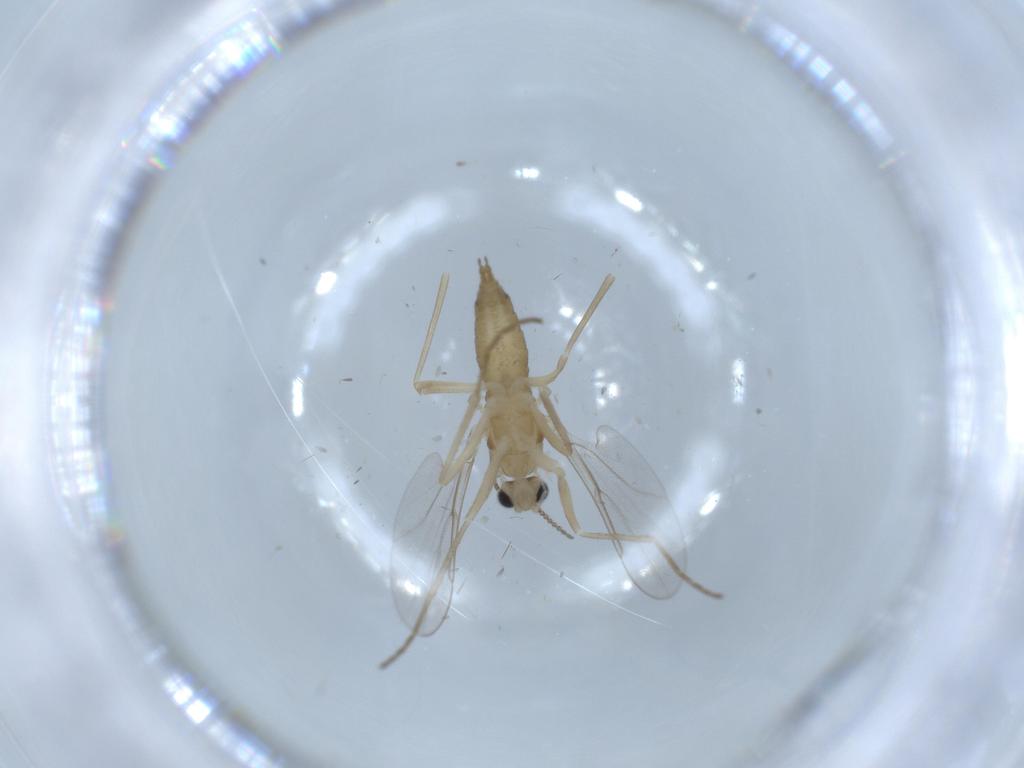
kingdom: Animalia
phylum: Arthropoda
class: Insecta
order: Diptera
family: Cecidomyiidae
